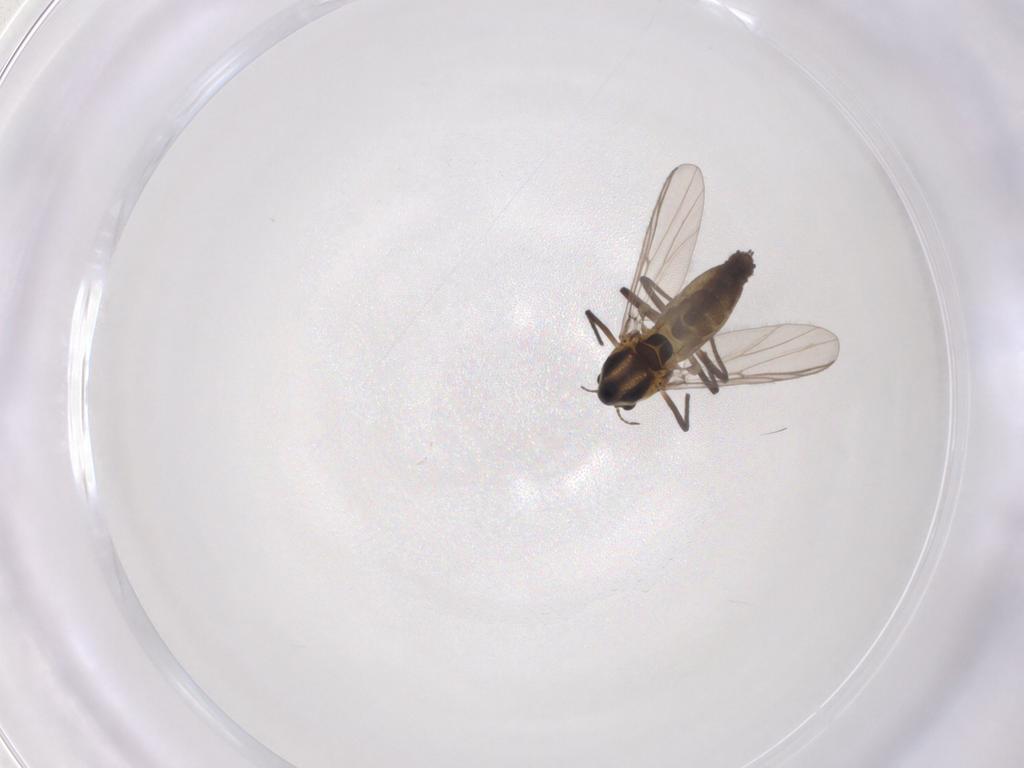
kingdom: Animalia
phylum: Arthropoda
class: Insecta
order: Diptera
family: Chironomidae
